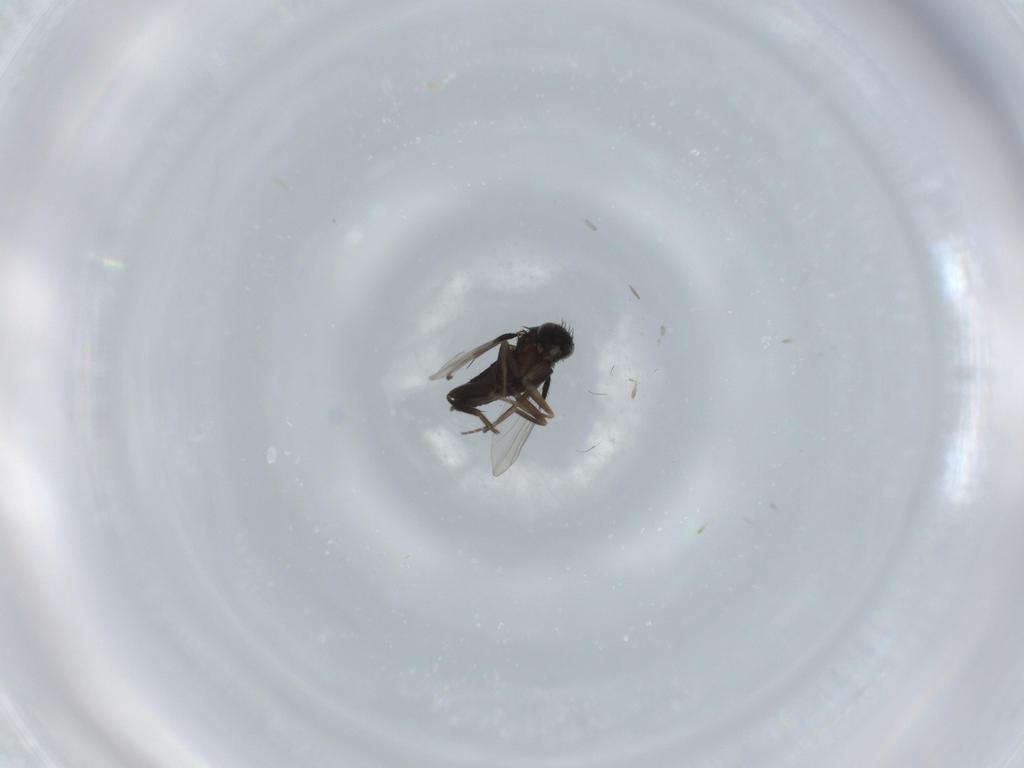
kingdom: Animalia
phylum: Arthropoda
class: Insecta
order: Diptera
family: Phoridae
